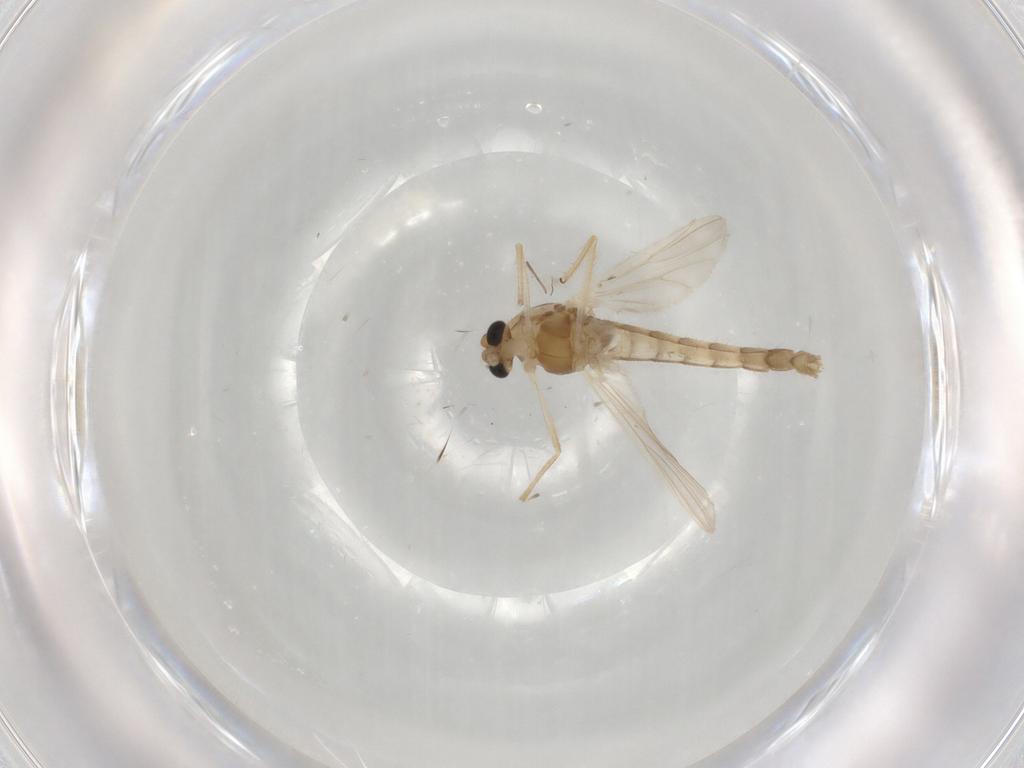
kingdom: Animalia
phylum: Arthropoda
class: Insecta
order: Diptera
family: Chironomidae
